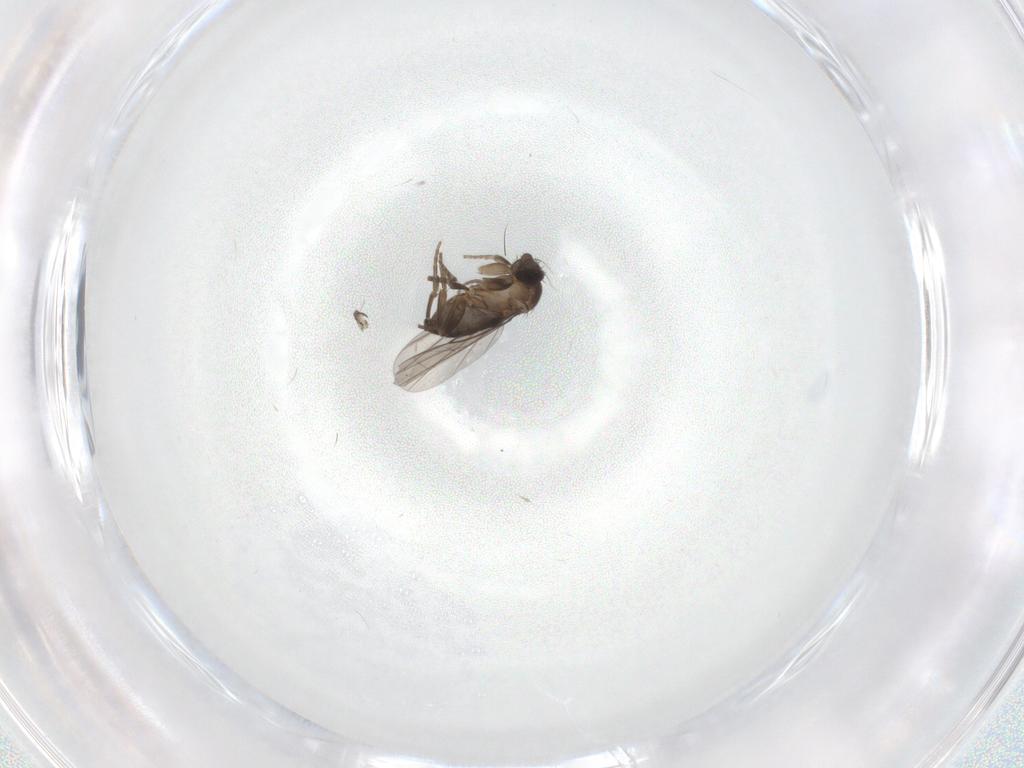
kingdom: Animalia
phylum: Arthropoda
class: Insecta
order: Diptera
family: Phoridae
